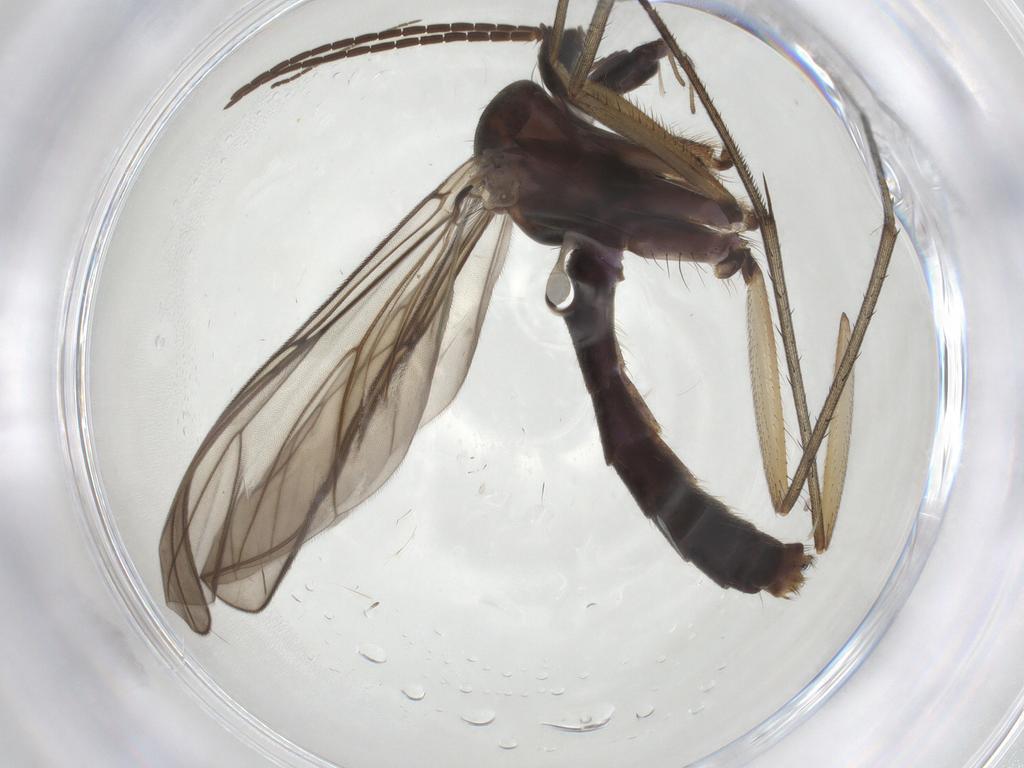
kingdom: Animalia
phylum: Arthropoda
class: Insecta
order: Diptera
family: Mycetophilidae
